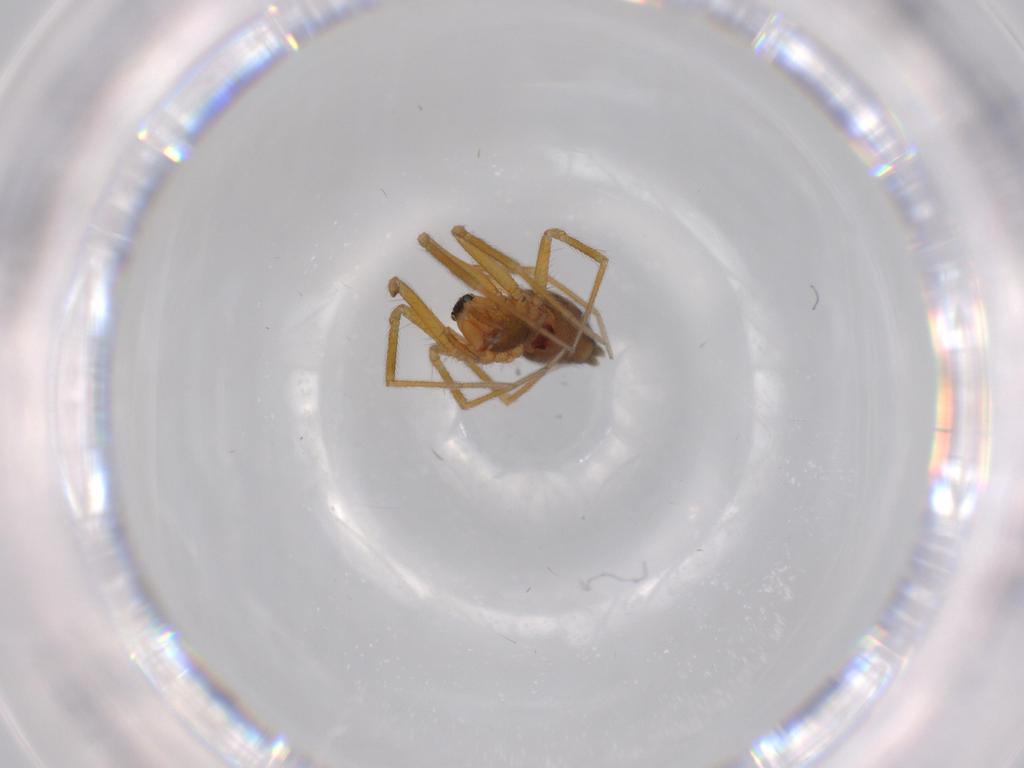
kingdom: Animalia
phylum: Arthropoda
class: Arachnida
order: Araneae
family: Linyphiidae
